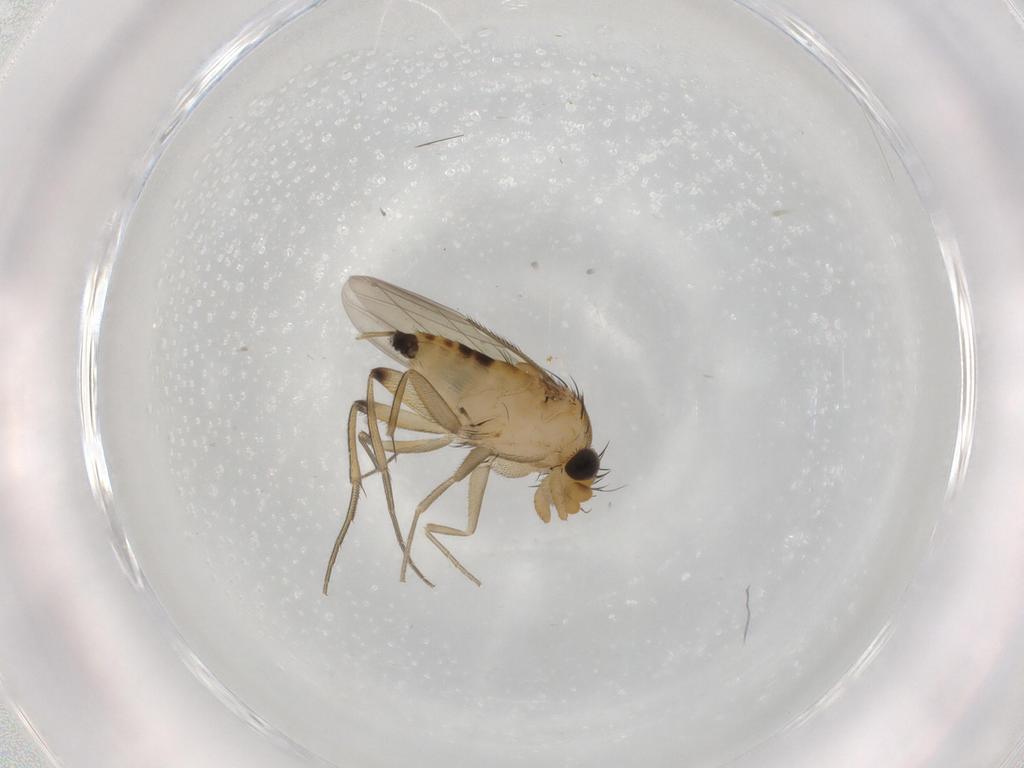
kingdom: Animalia
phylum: Arthropoda
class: Insecta
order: Diptera
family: Phoridae
